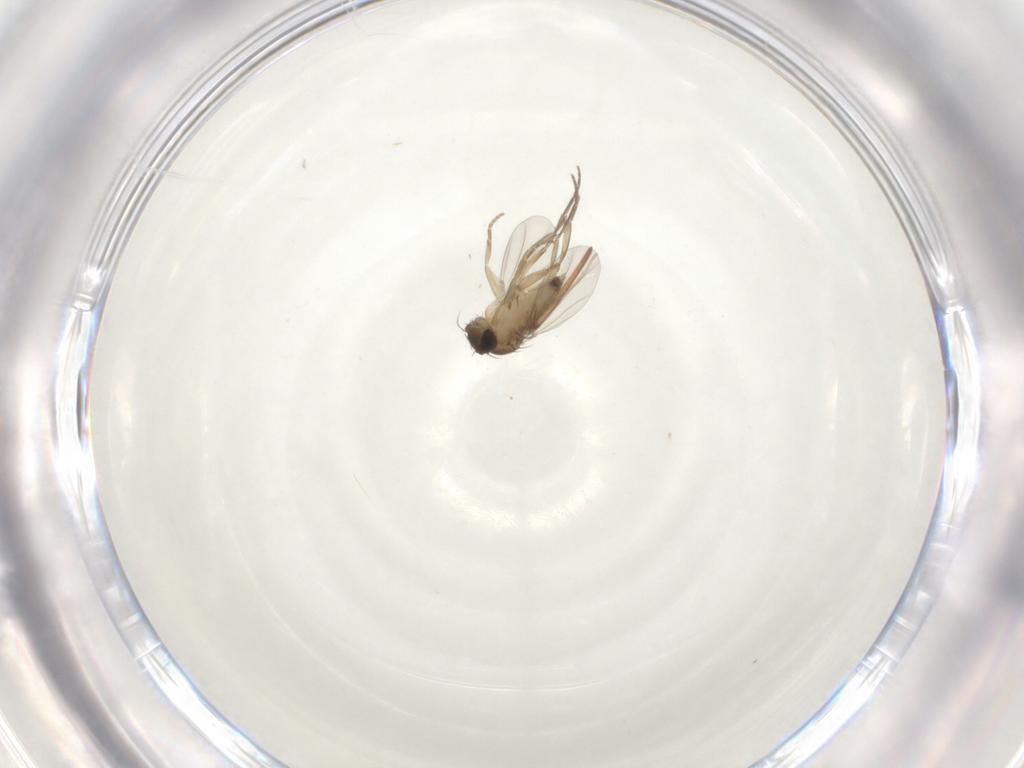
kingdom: Animalia
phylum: Arthropoda
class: Insecta
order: Diptera
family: Phoridae
